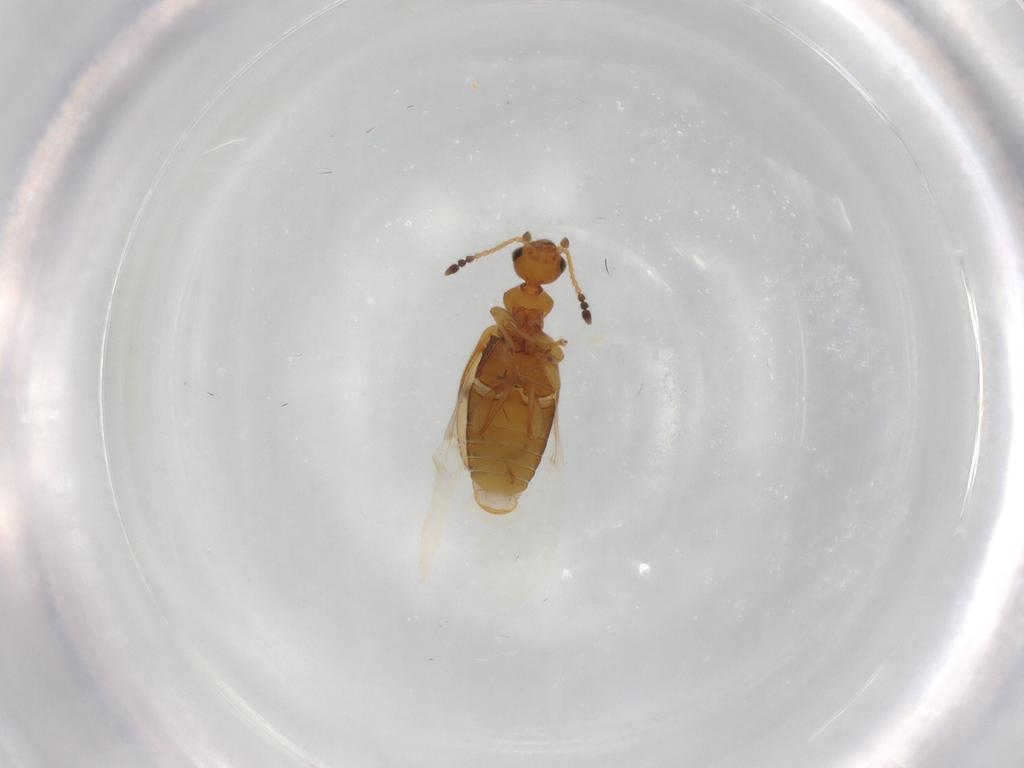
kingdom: Animalia
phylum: Arthropoda
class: Insecta
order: Coleoptera
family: Anthicidae
